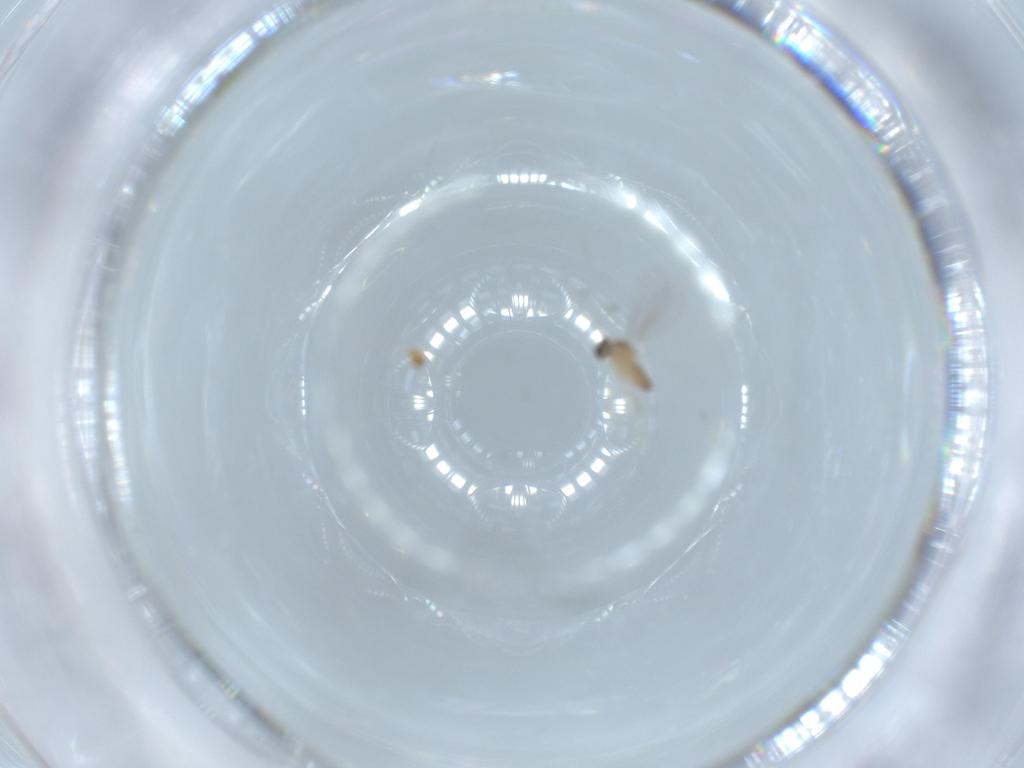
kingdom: Animalia
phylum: Arthropoda
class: Insecta
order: Diptera
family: Cecidomyiidae
